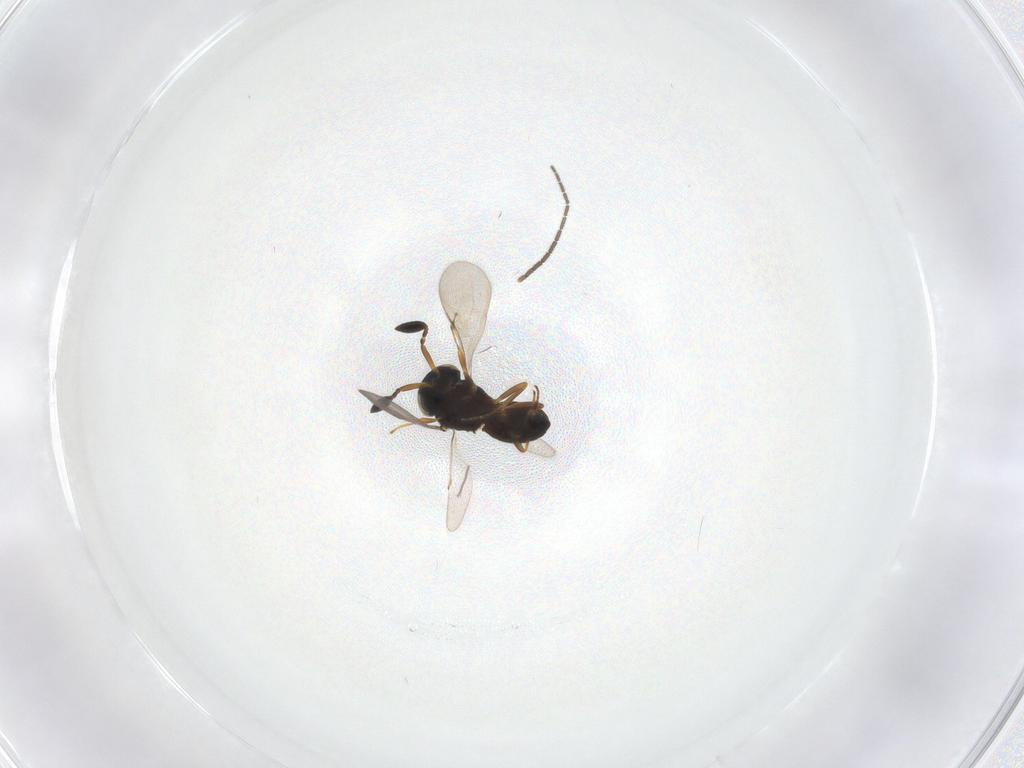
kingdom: Animalia
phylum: Arthropoda
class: Insecta
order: Hymenoptera
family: Scelionidae
